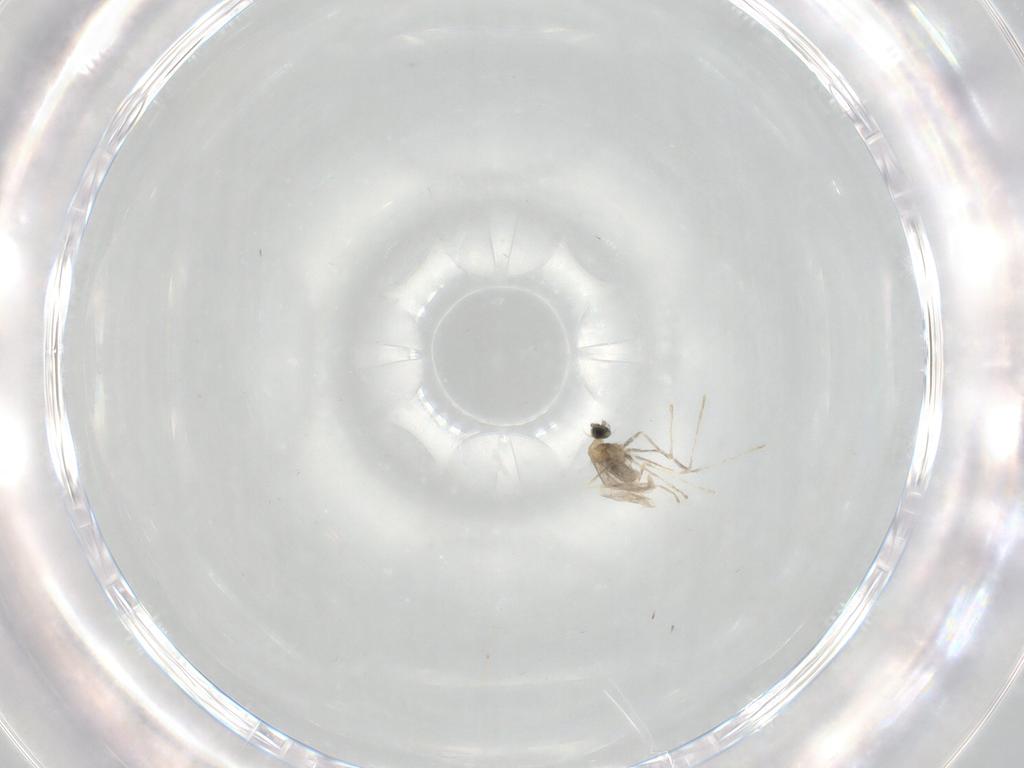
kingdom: Animalia
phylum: Arthropoda
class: Insecta
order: Diptera
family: Cecidomyiidae
